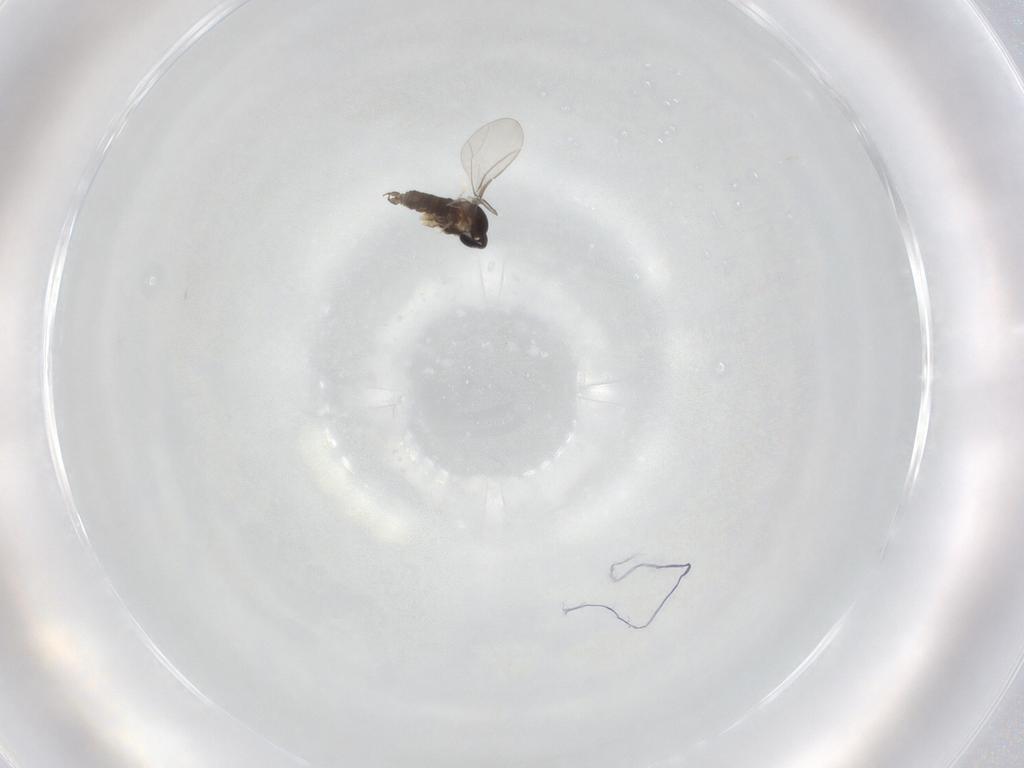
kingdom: Animalia
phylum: Arthropoda
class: Insecta
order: Diptera
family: Cecidomyiidae
